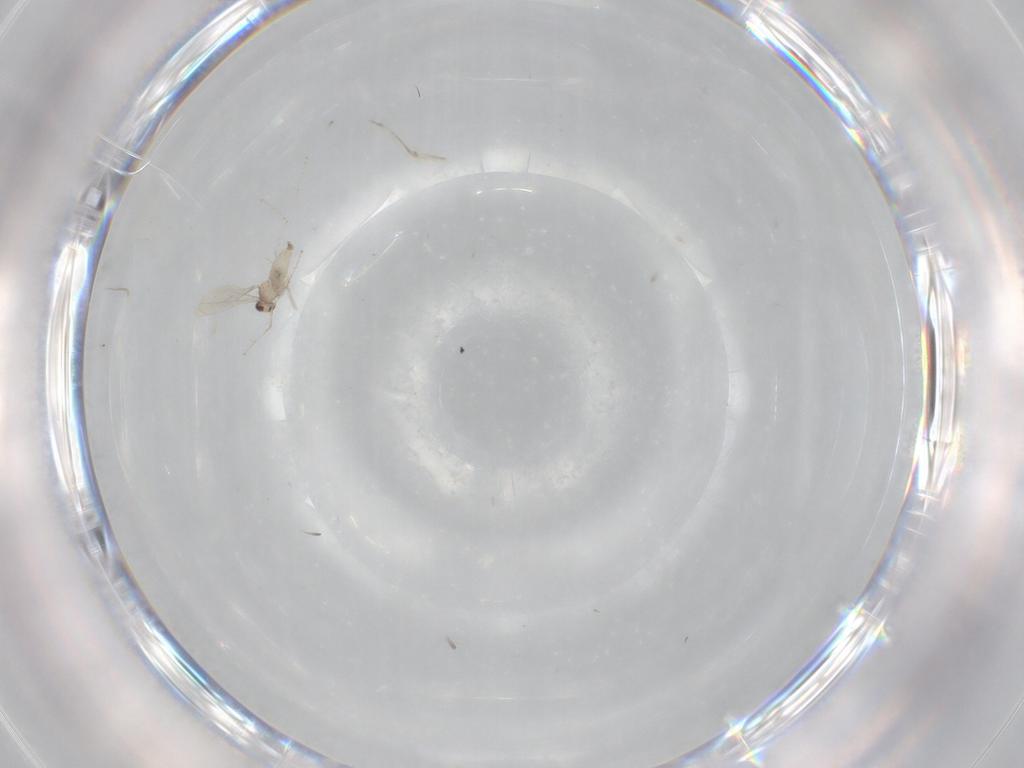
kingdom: Animalia
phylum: Arthropoda
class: Insecta
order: Diptera
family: Cecidomyiidae
